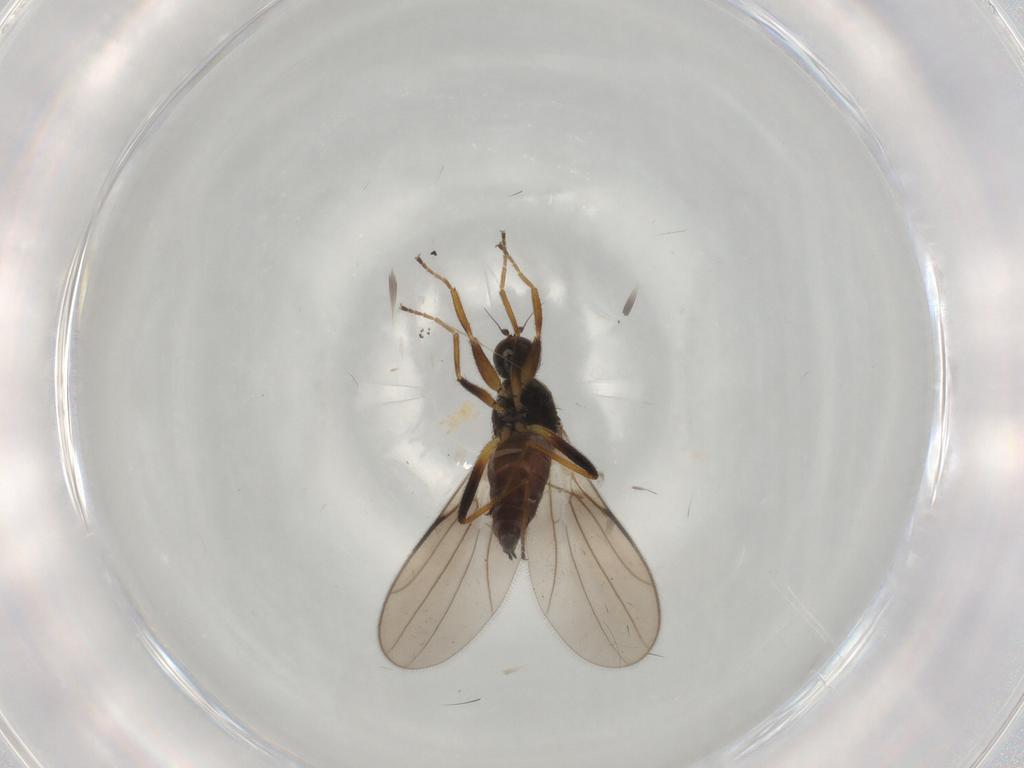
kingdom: Animalia
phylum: Arthropoda
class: Insecta
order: Diptera
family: Hybotidae
